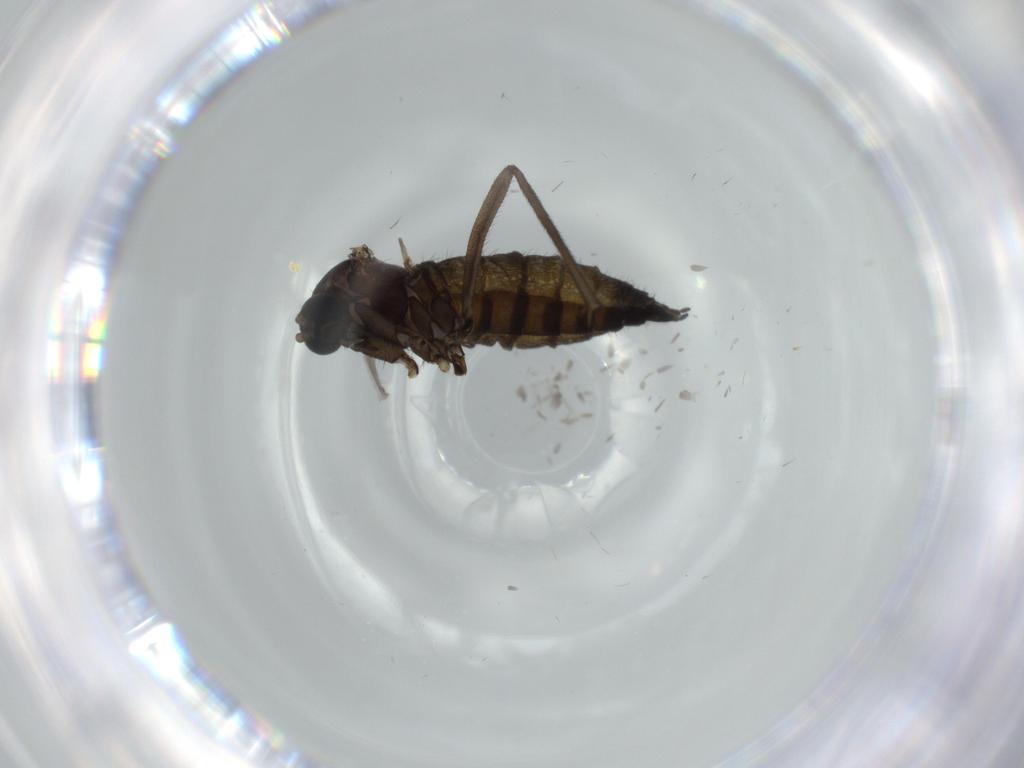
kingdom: Animalia
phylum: Arthropoda
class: Insecta
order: Diptera
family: Sciaridae
